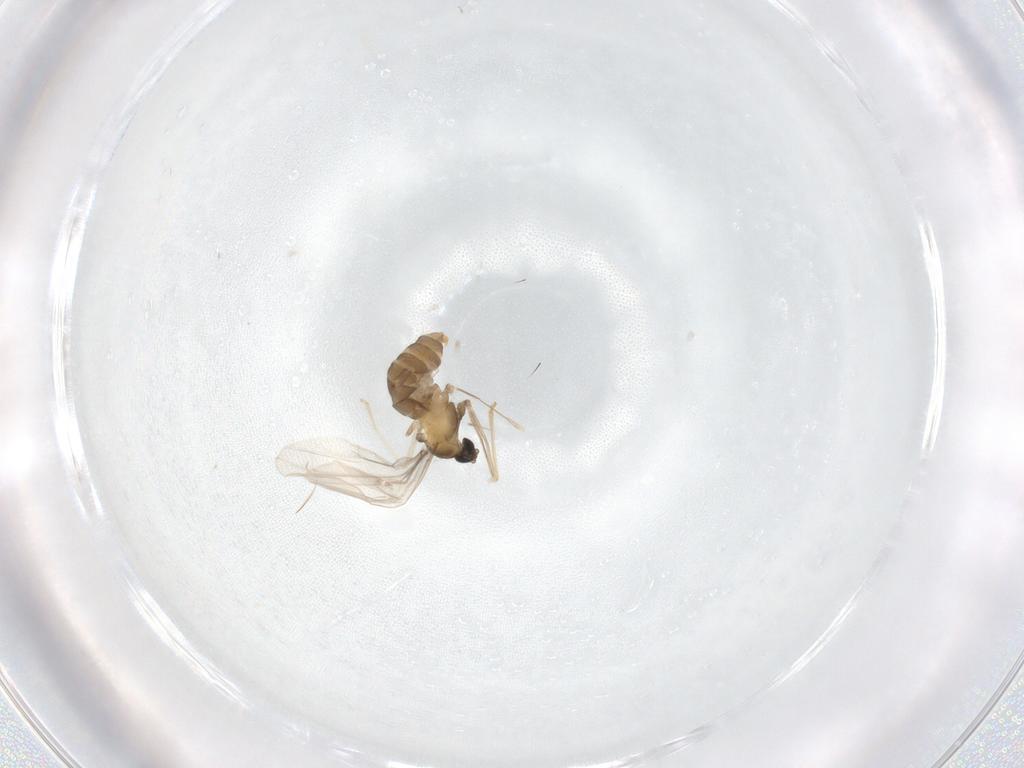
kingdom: Animalia
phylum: Arthropoda
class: Insecta
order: Diptera
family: Cecidomyiidae
